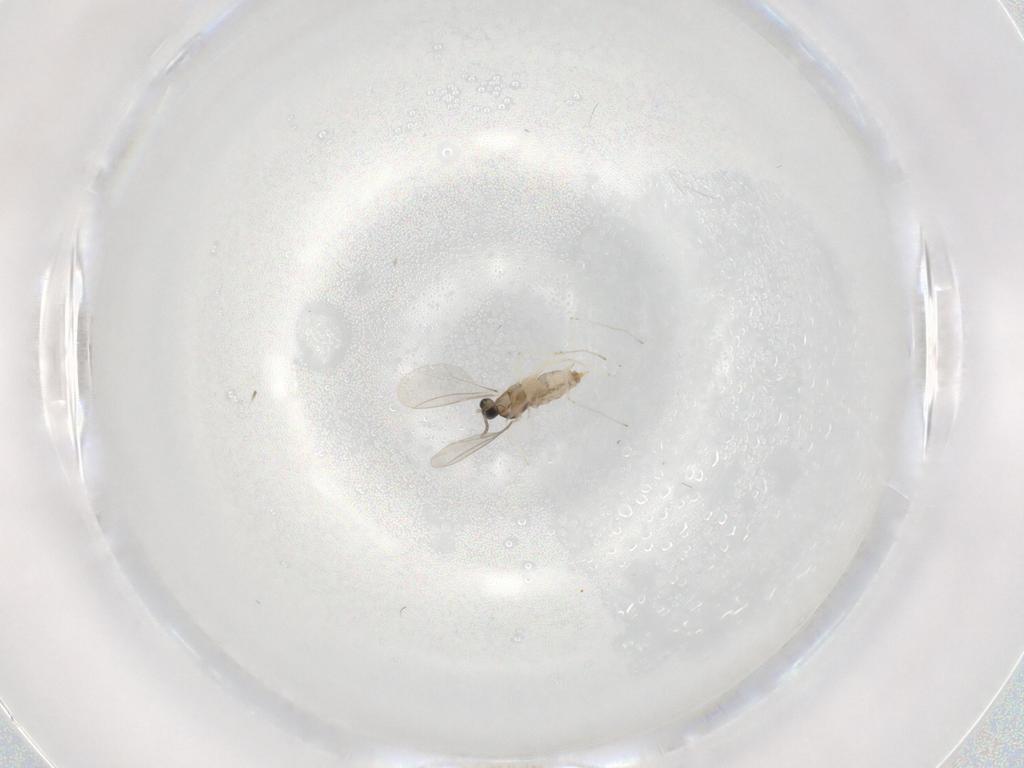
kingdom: Animalia
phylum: Arthropoda
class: Insecta
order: Diptera
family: Cecidomyiidae
